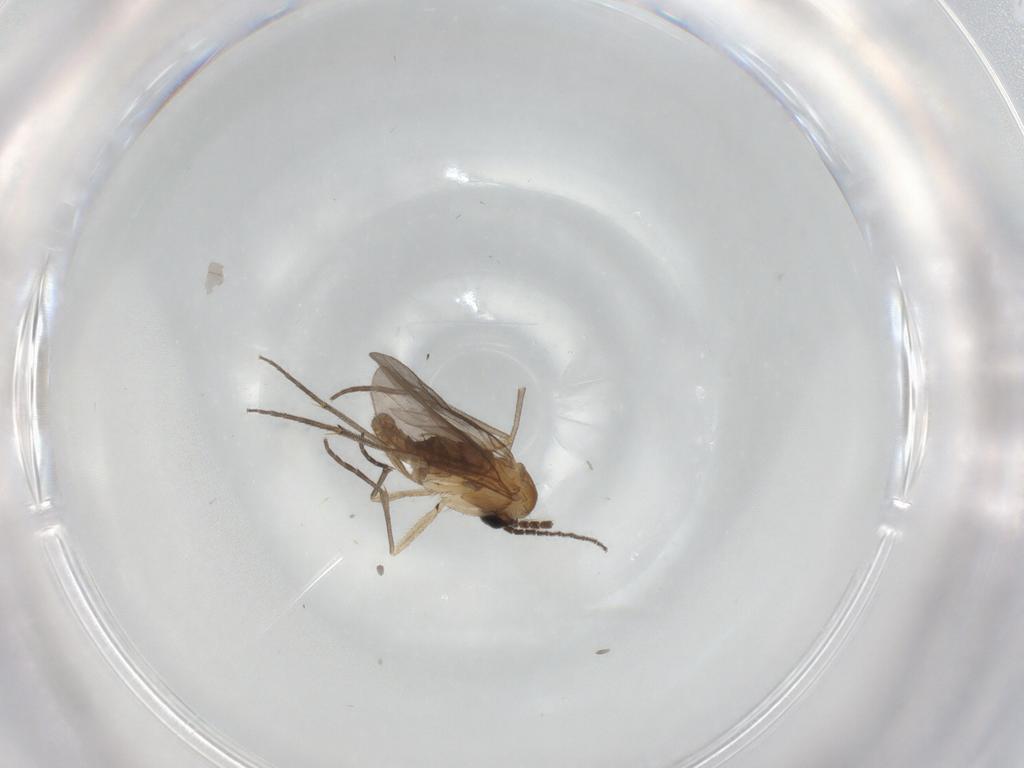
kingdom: Animalia
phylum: Arthropoda
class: Insecta
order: Diptera
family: Sciaridae
